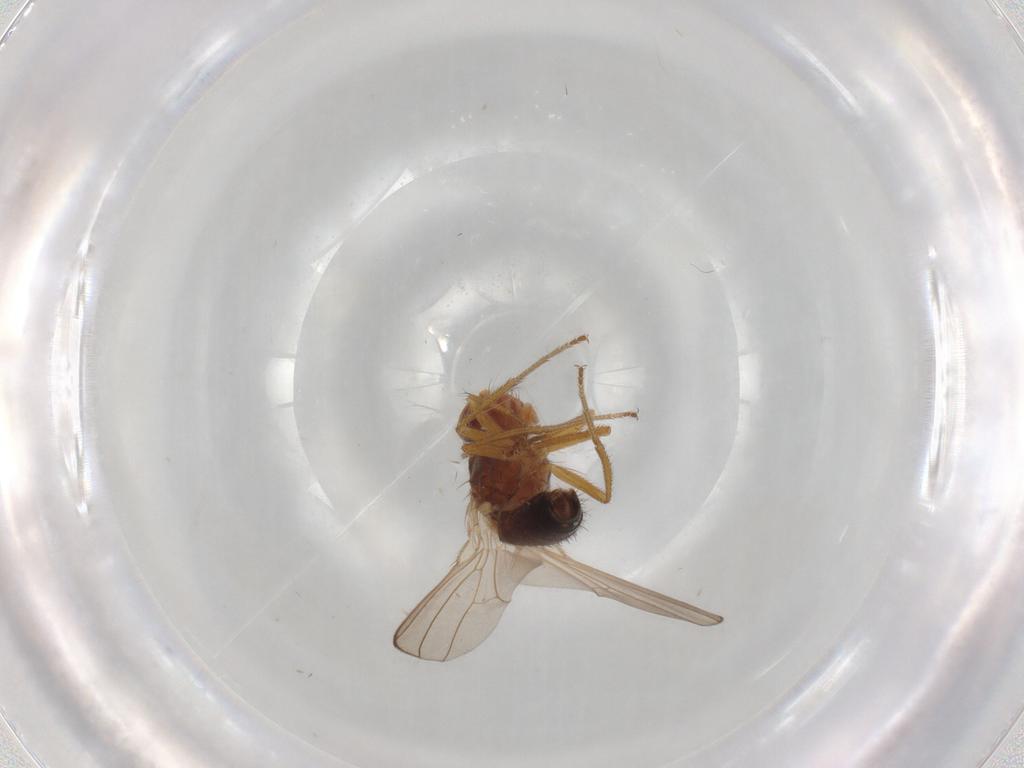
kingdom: Animalia
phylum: Arthropoda
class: Insecta
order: Diptera
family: Drosophilidae
